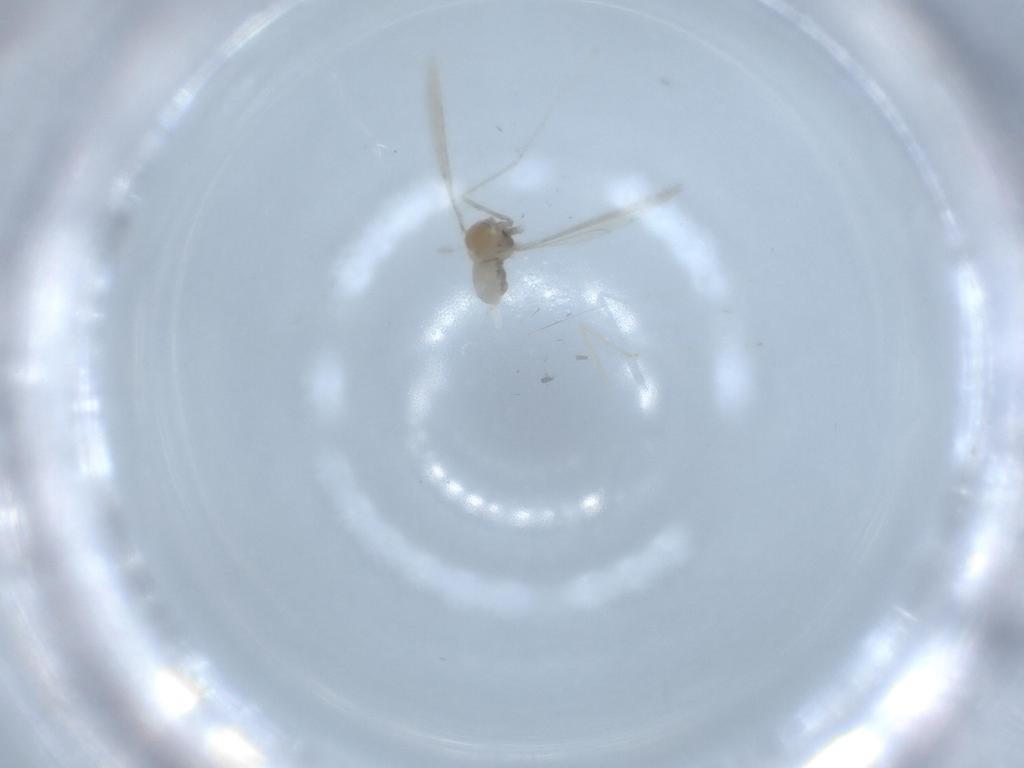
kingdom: Animalia
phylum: Arthropoda
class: Insecta
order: Diptera
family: Cecidomyiidae
